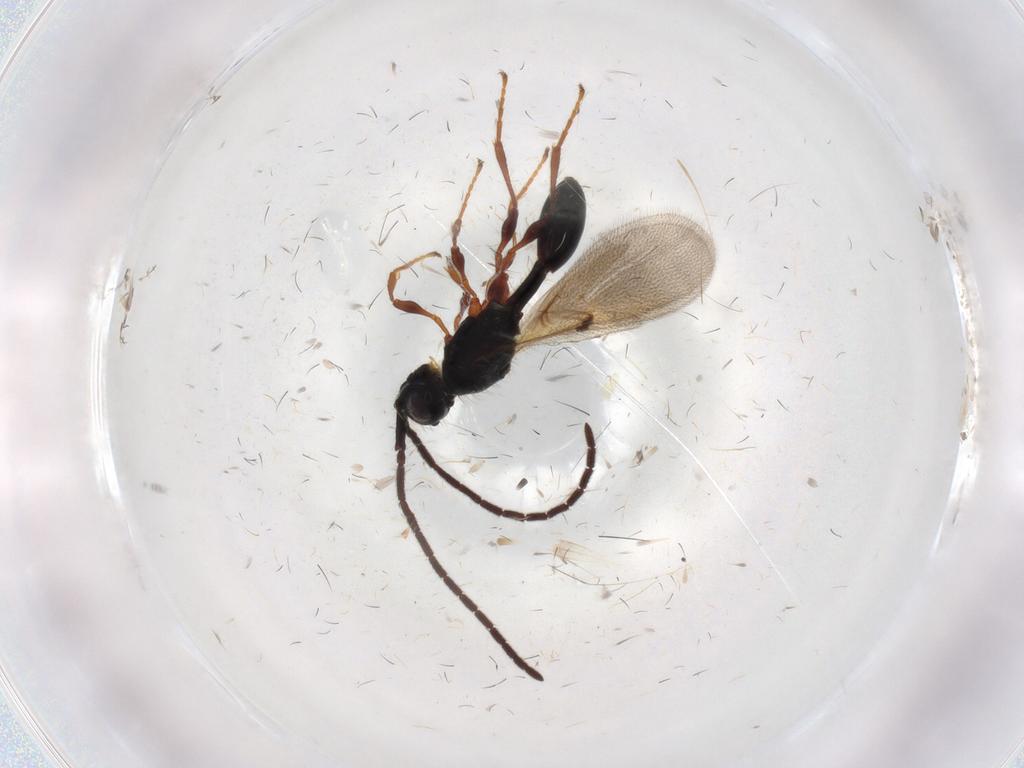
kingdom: Animalia
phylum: Arthropoda
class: Insecta
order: Hymenoptera
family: Diapriidae
